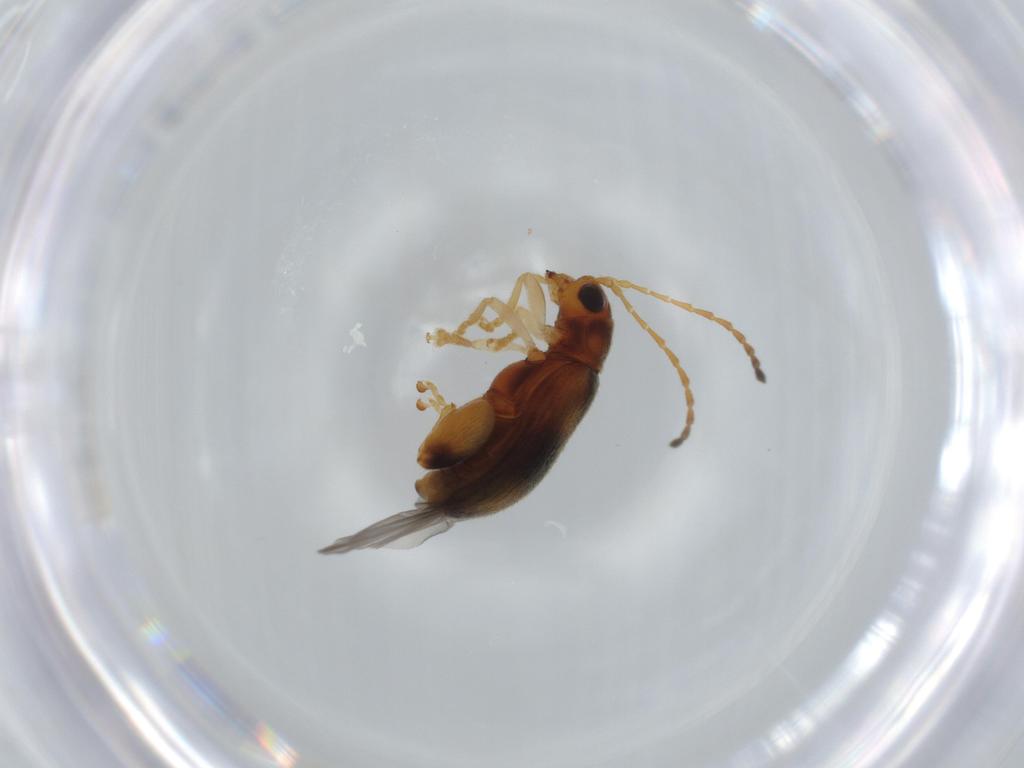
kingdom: Animalia
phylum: Arthropoda
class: Insecta
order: Coleoptera
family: Chrysomelidae
